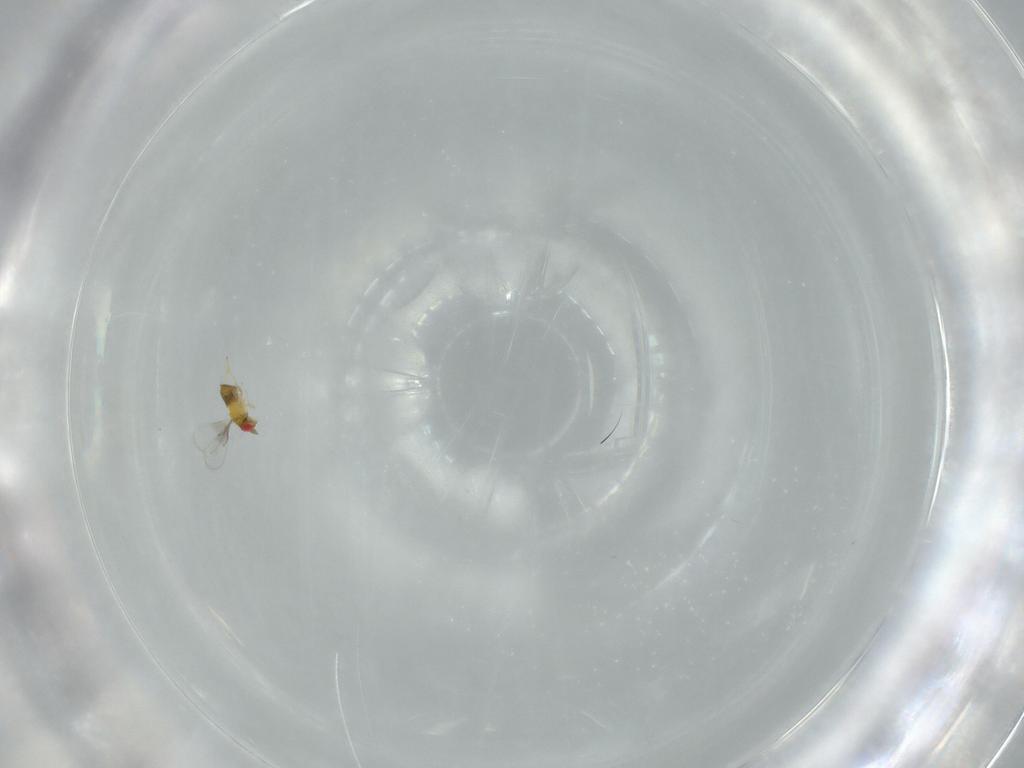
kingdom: Animalia
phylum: Arthropoda
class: Insecta
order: Hymenoptera
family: Trichogrammatidae
